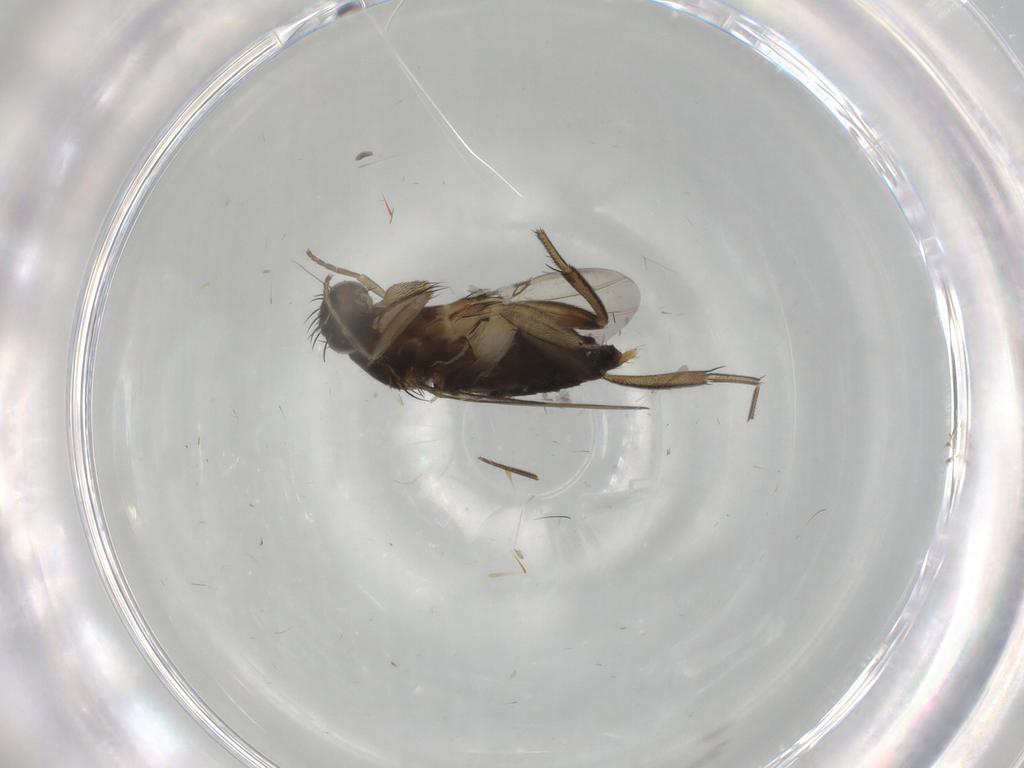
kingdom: Animalia
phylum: Arthropoda
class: Insecta
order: Diptera
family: Phoridae
